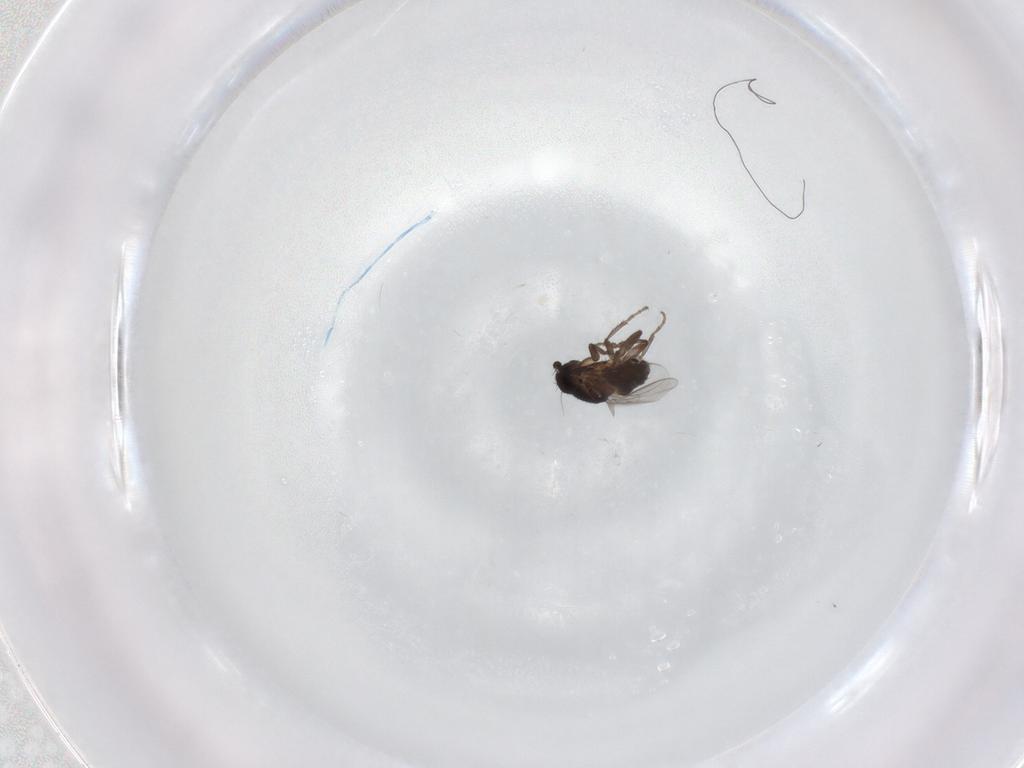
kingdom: Animalia
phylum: Arthropoda
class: Insecta
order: Diptera
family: Sphaeroceridae
